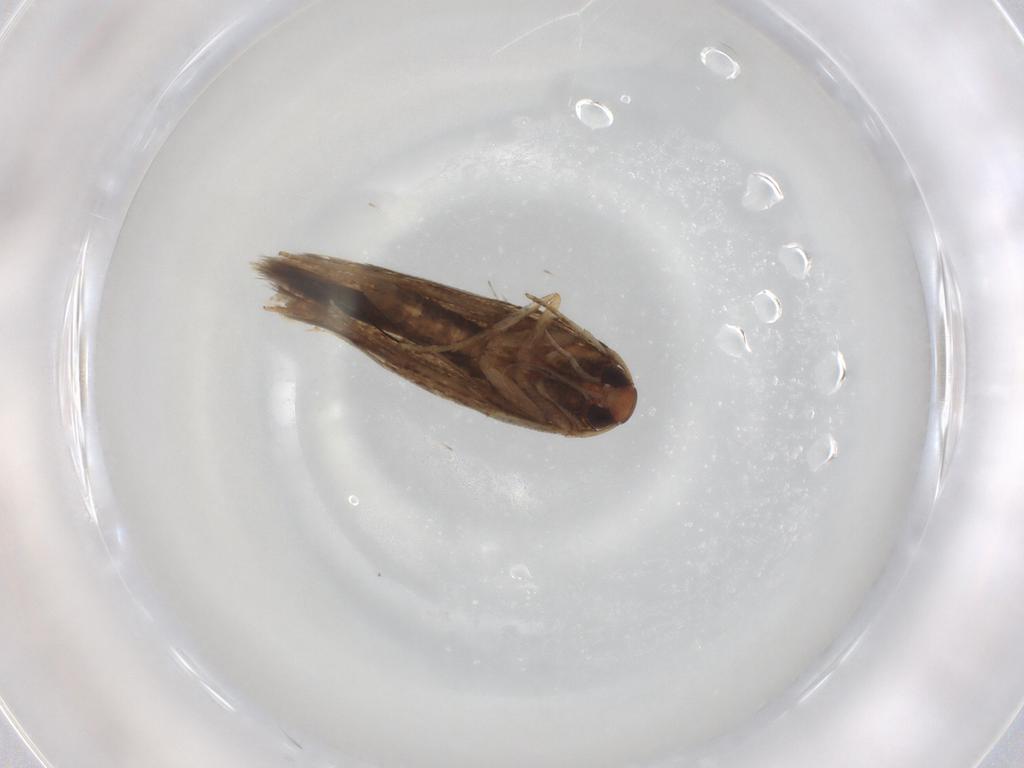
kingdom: Animalia
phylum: Arthropoda
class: Insecta
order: Lepidoptera
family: Cosmopterigidae
